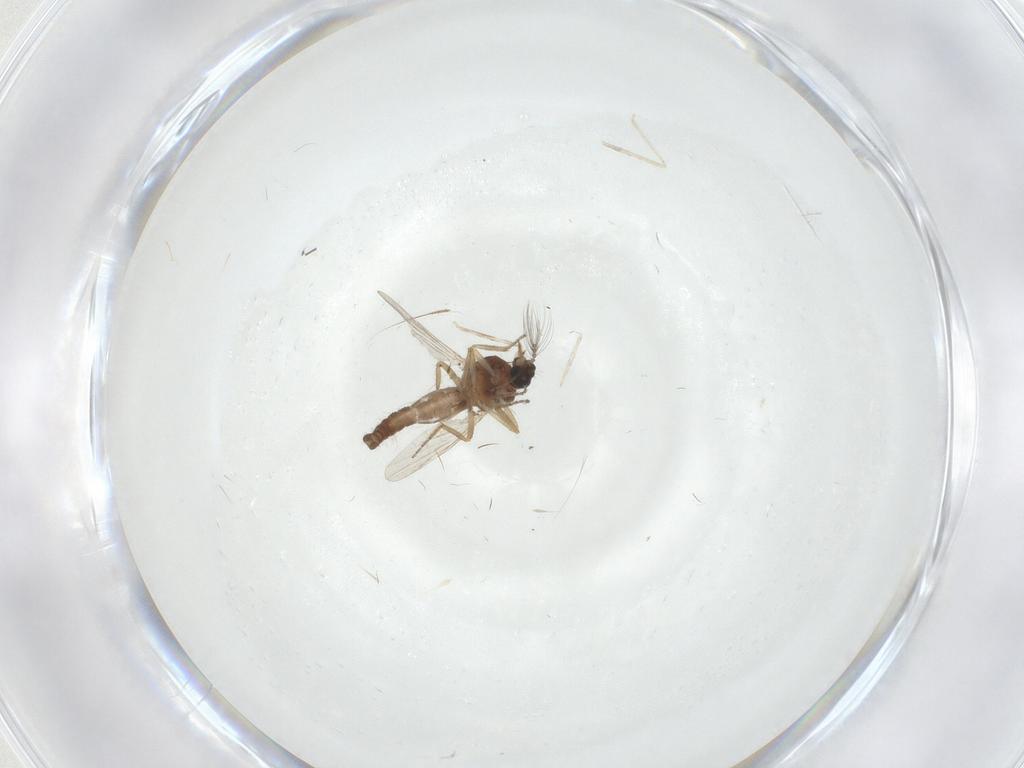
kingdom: Animalia
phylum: Arthropoda
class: Insecta
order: Diptera
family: Ceratopogonidae
